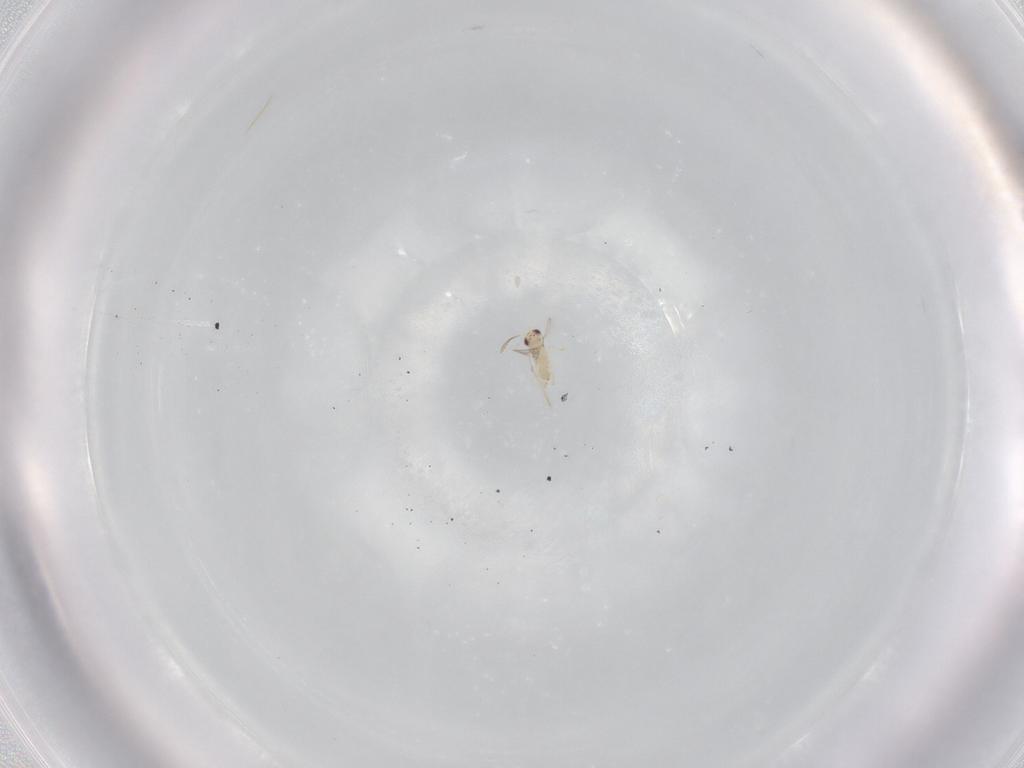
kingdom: Animalia
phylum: Arthropoda
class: Insecta
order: Hymenoptera
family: Mymaridae
